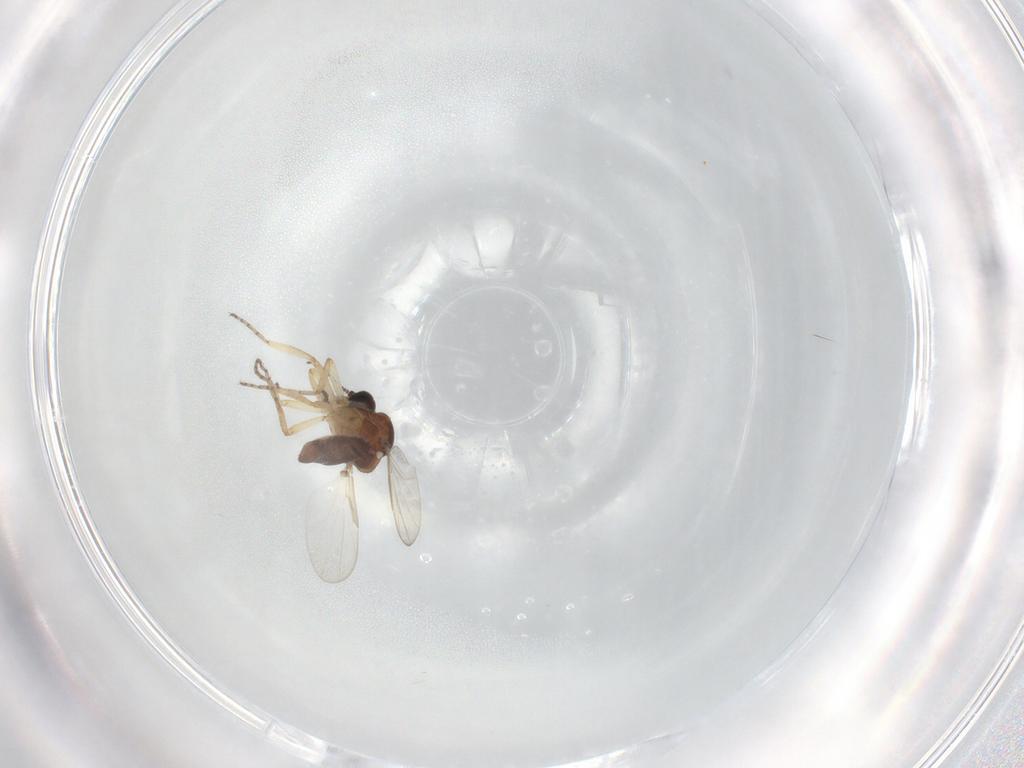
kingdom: Animalia
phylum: Arthropoda
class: Insecta
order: Diptera
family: Ceratopogonidae
